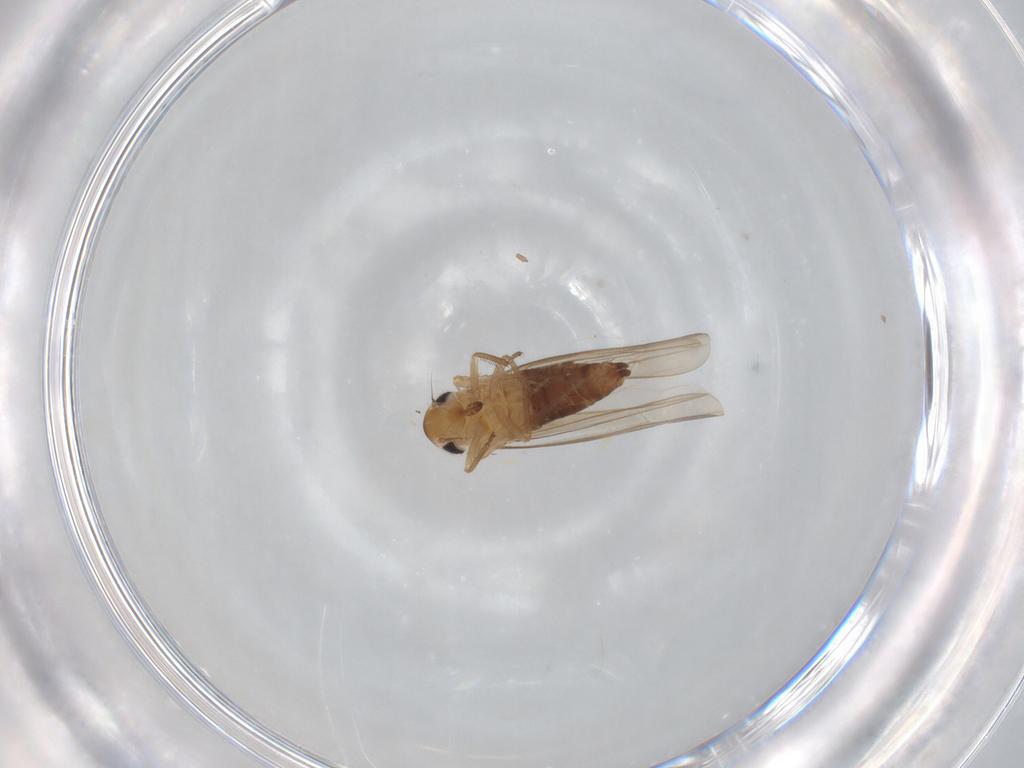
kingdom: Animalia
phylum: Arthropoda
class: Insecta
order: Hemiptera
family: Cicadellidae
